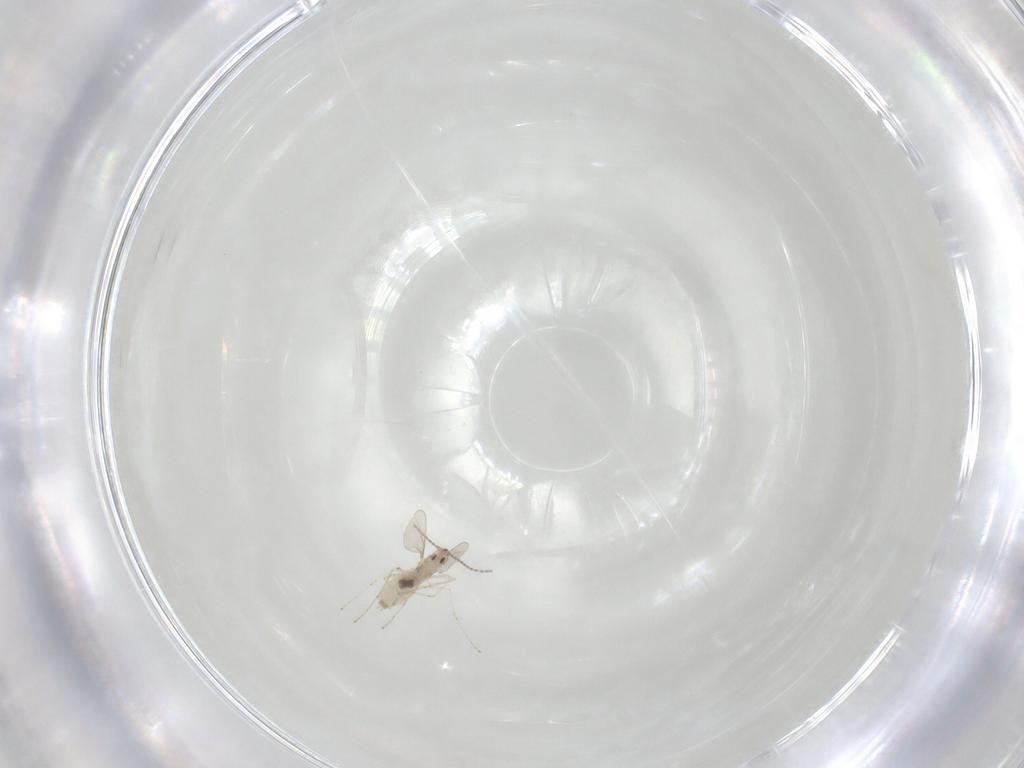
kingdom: Animalia
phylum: Arthropoda
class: Insecta
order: Diptera
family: Cecidomyiidae
